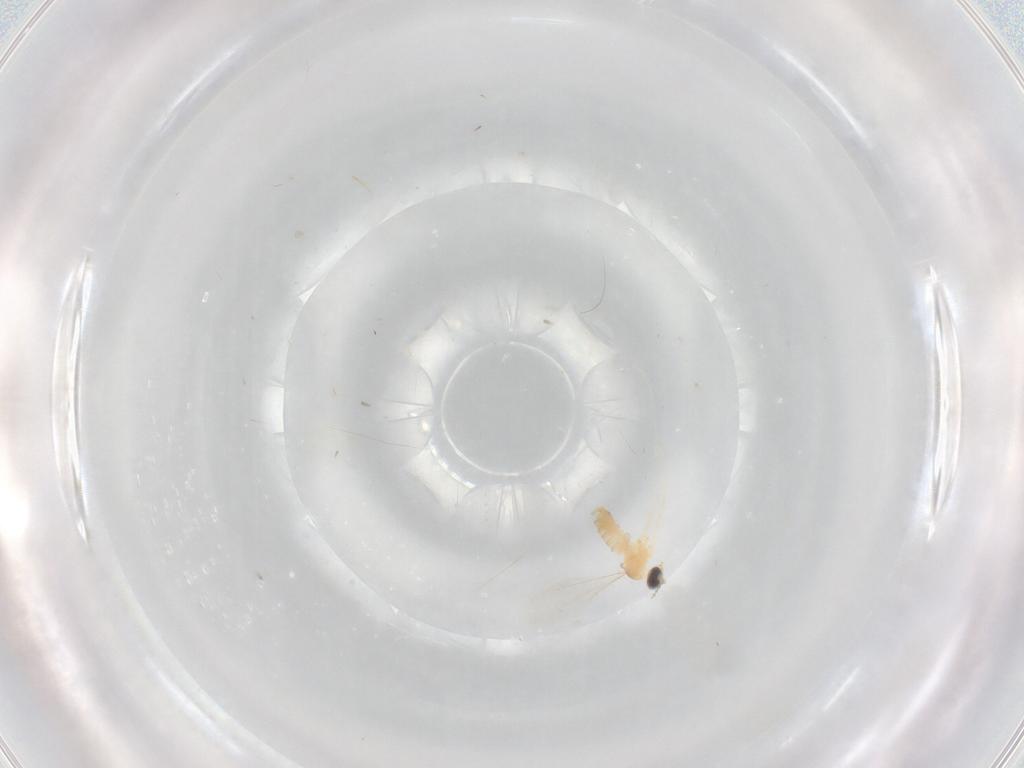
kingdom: Animalia
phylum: Arthropoda
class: Insecta
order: Diptera
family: Cecidomyiidae
